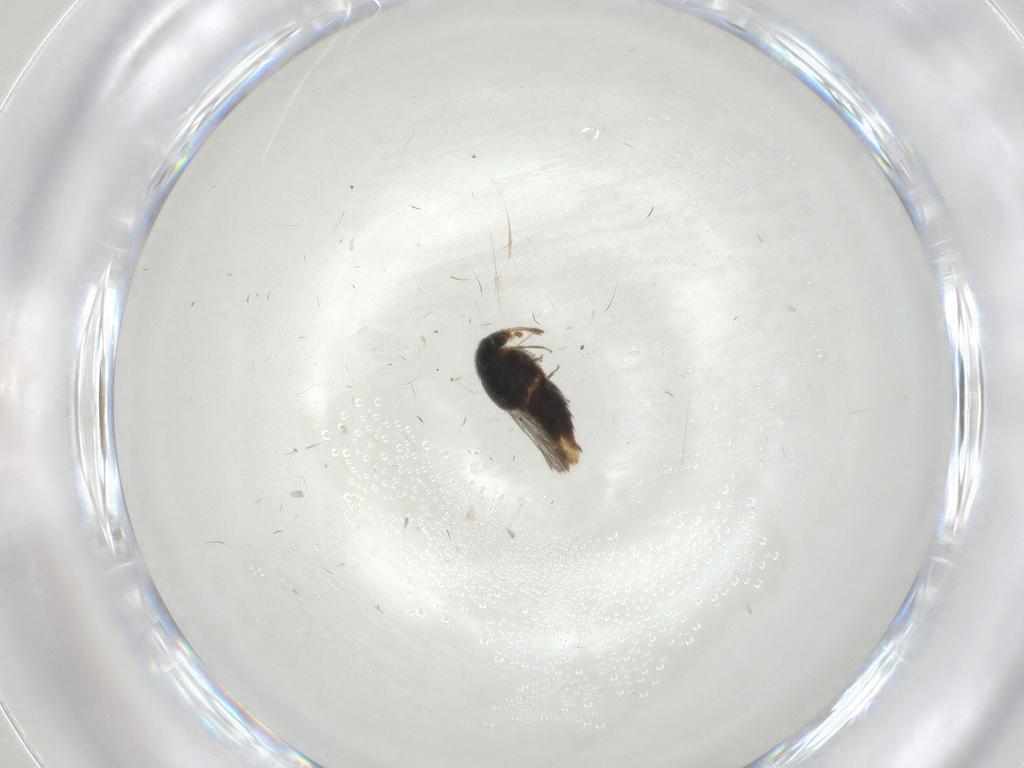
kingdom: Animalia
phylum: Arthropoda
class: Insecta
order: Coleoptera
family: Staphylinidae
